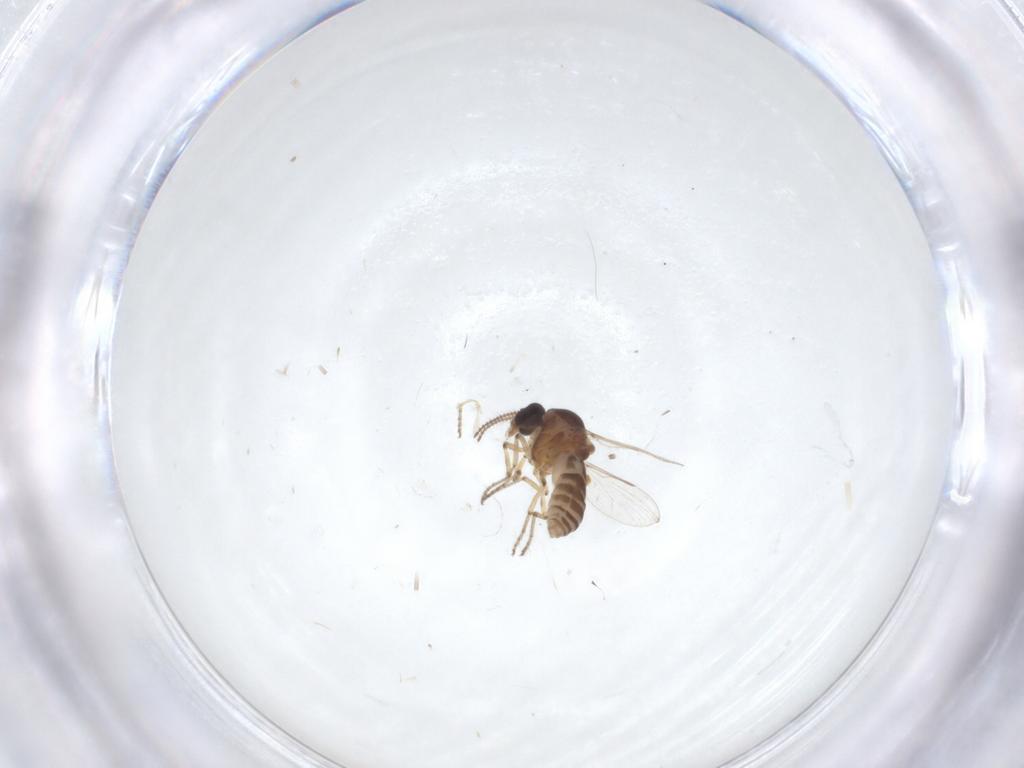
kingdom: Animalia
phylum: Arthropoda
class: Insecta
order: Diptera
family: Ceratopogonidae
